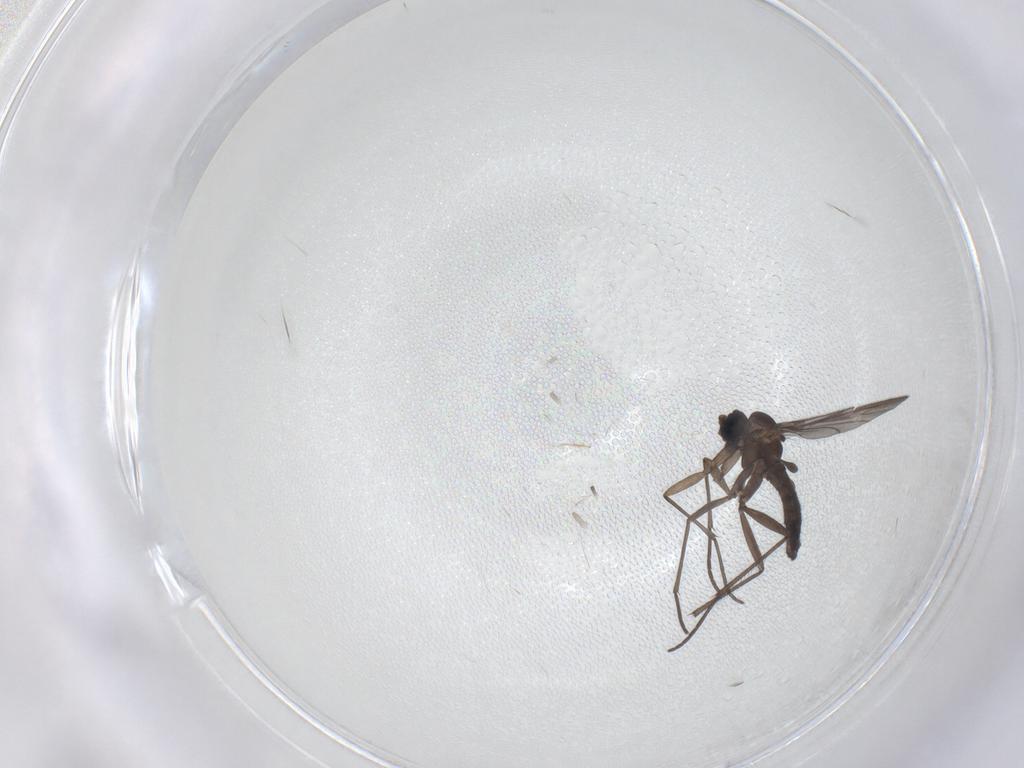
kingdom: Animalia
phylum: Arthropoda
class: Insecta
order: Diptera
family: Sciaridae
